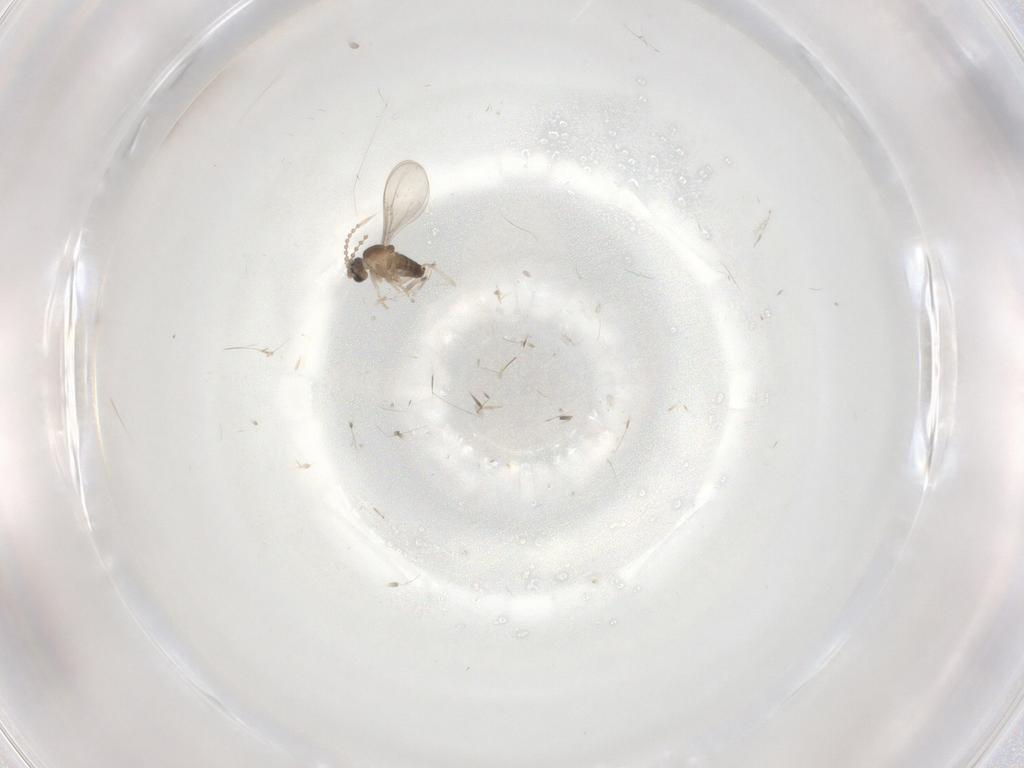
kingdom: Animalia
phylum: Arthropoda
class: Insecta
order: Diptera
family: Cecidomyiidae
